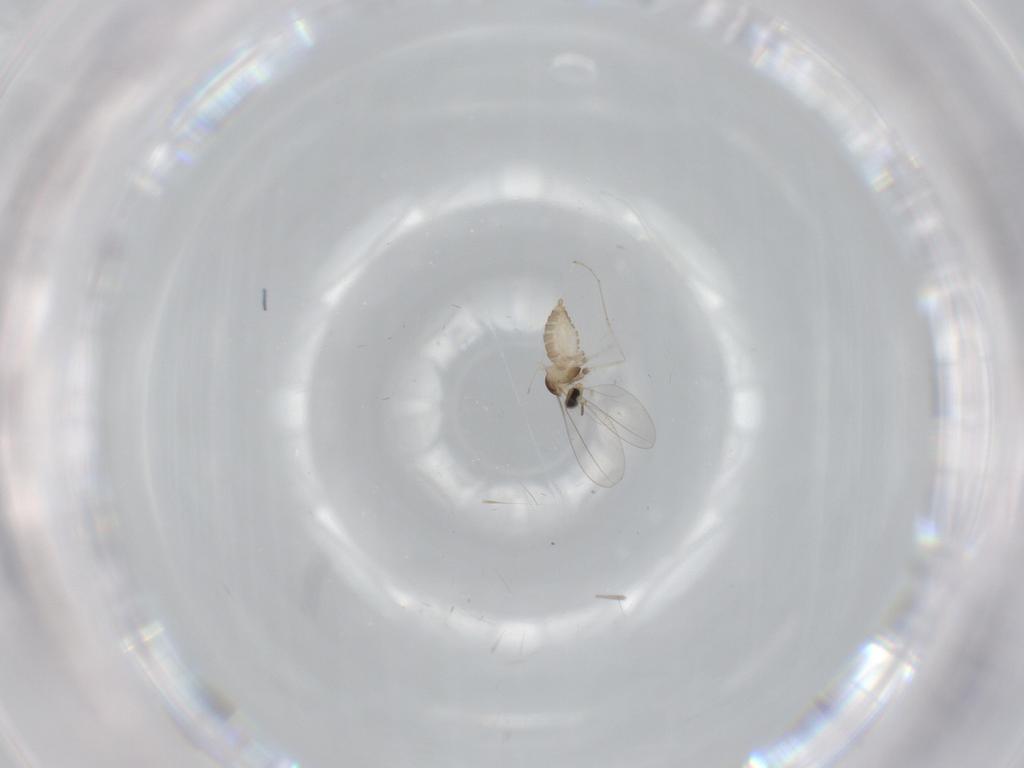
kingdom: Animalia
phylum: Arthropoda
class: Insecta
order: Diptera
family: Cecidomyiidae
